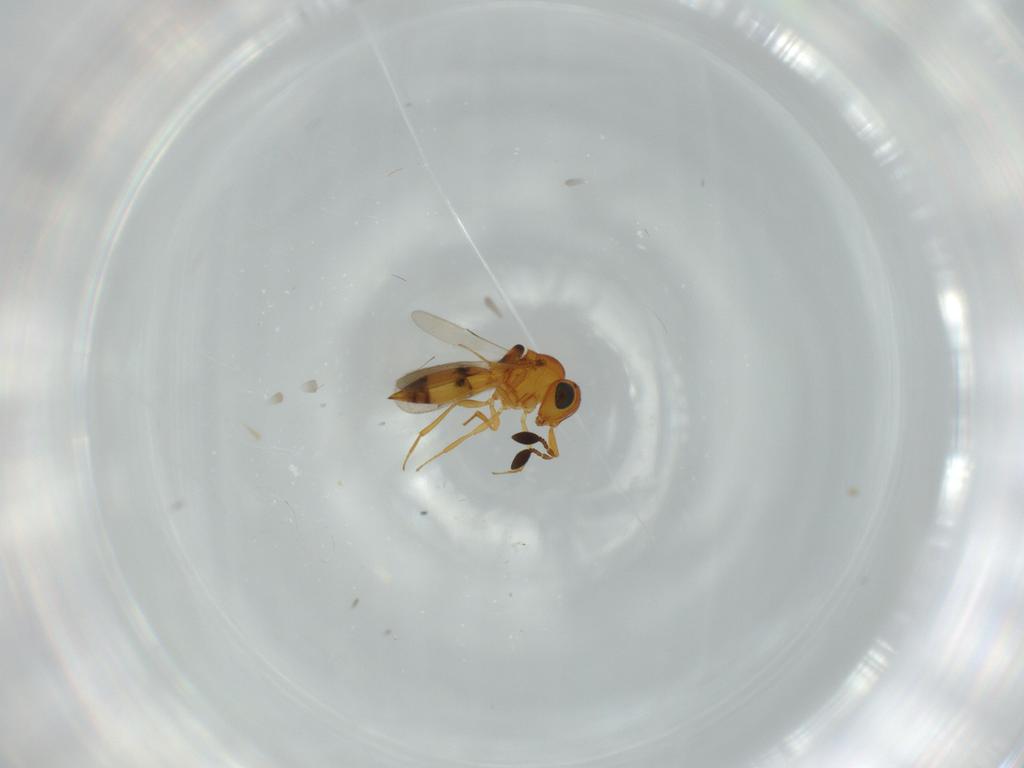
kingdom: Animalia
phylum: Arthropoda
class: Insecta
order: Hymenoptera
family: Scelionidae
